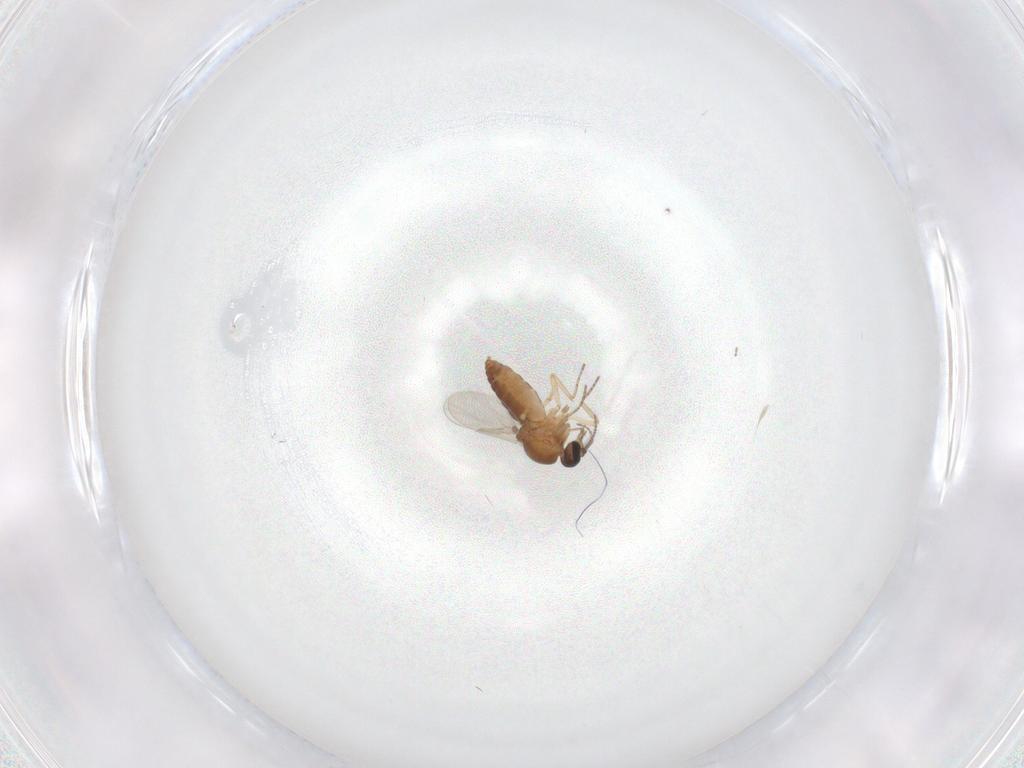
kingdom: Animalia
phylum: Arthropoda
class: Insecta
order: Diptera
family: Ceratopogonidae
